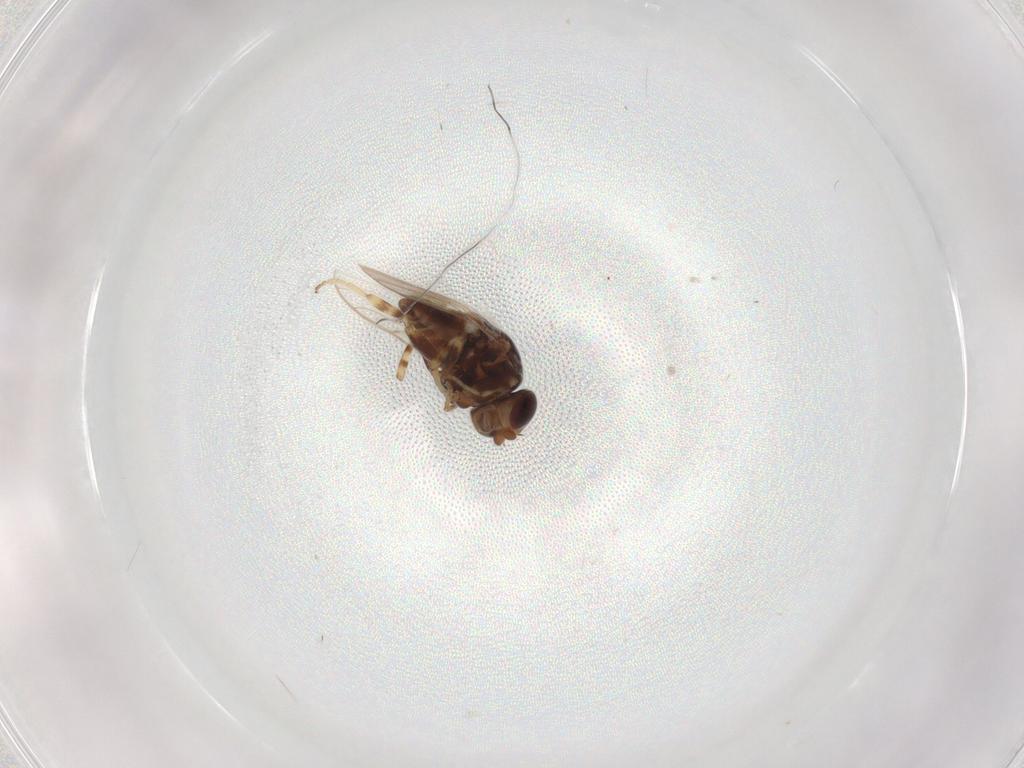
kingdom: Animalia
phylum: Arthropoda
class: Insecta
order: Diptera
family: Chloropidae
